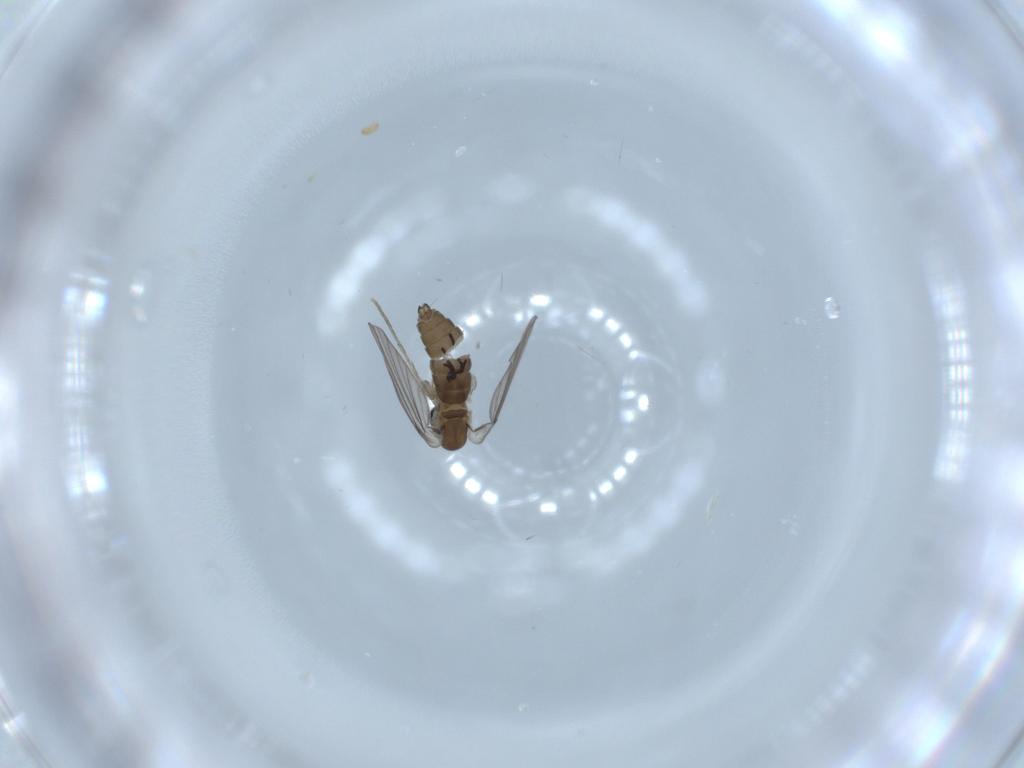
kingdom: Animalia
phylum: Arthropoda
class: Insecta
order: Diptera
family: Psychodidae
